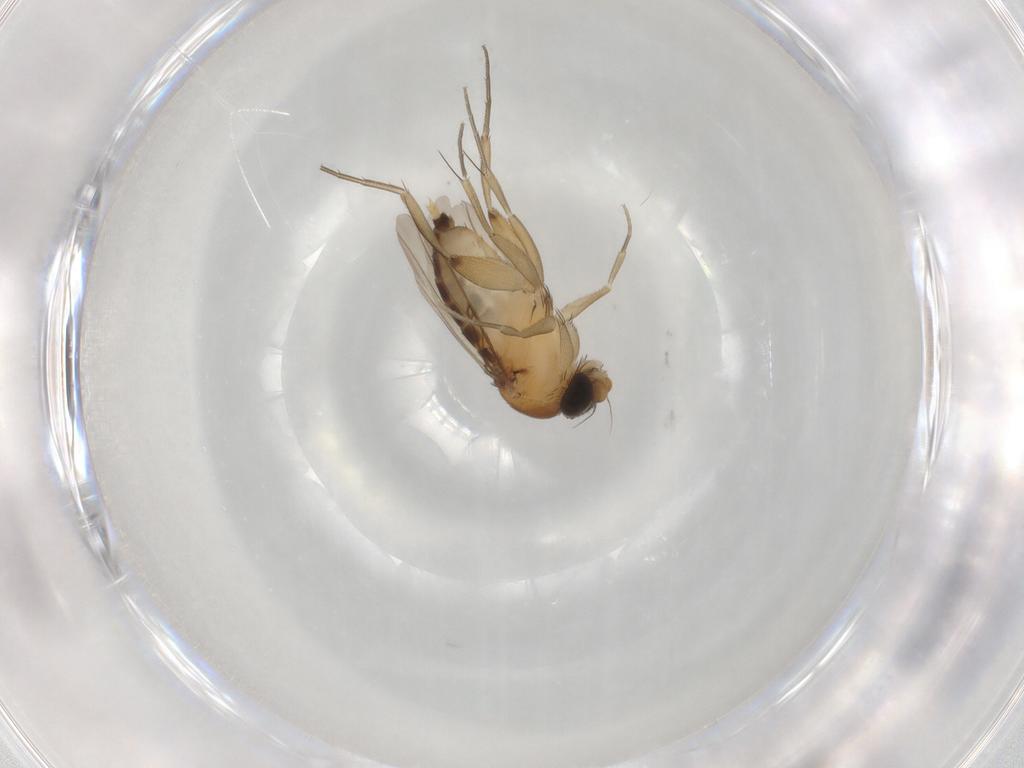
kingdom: Animalia
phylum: Arthropoda
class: Insecta
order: Diptera
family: Phoridae
